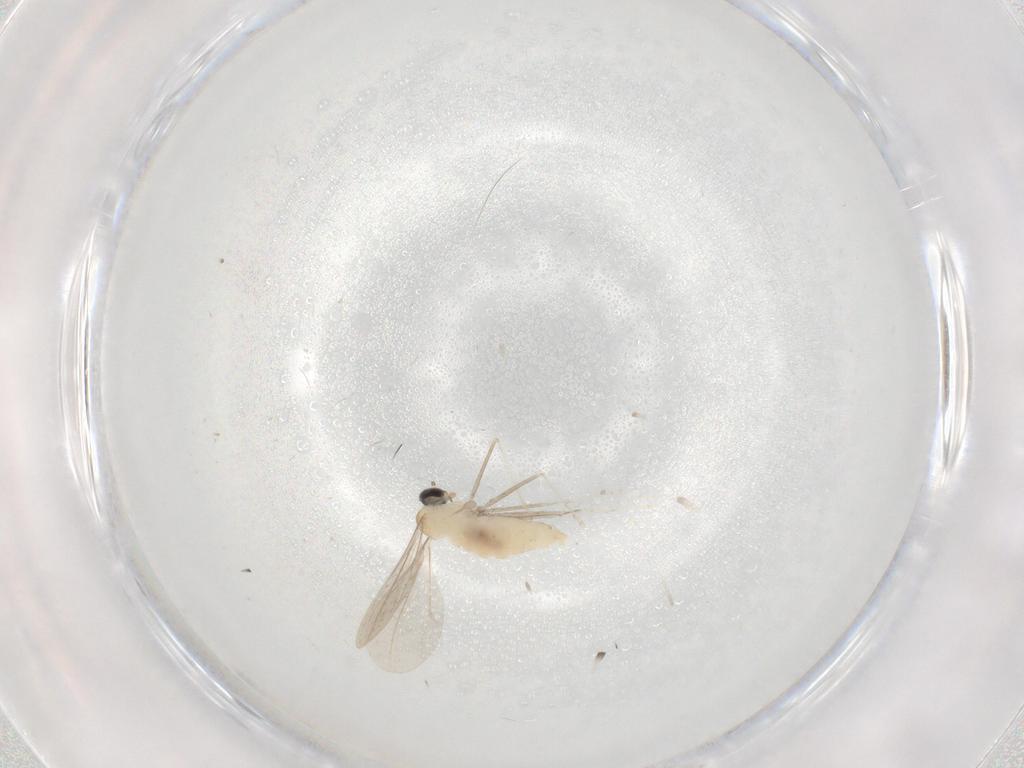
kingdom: Animalia
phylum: Arthropoda
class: Insecta
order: Diptera
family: Cecidomyiidae
